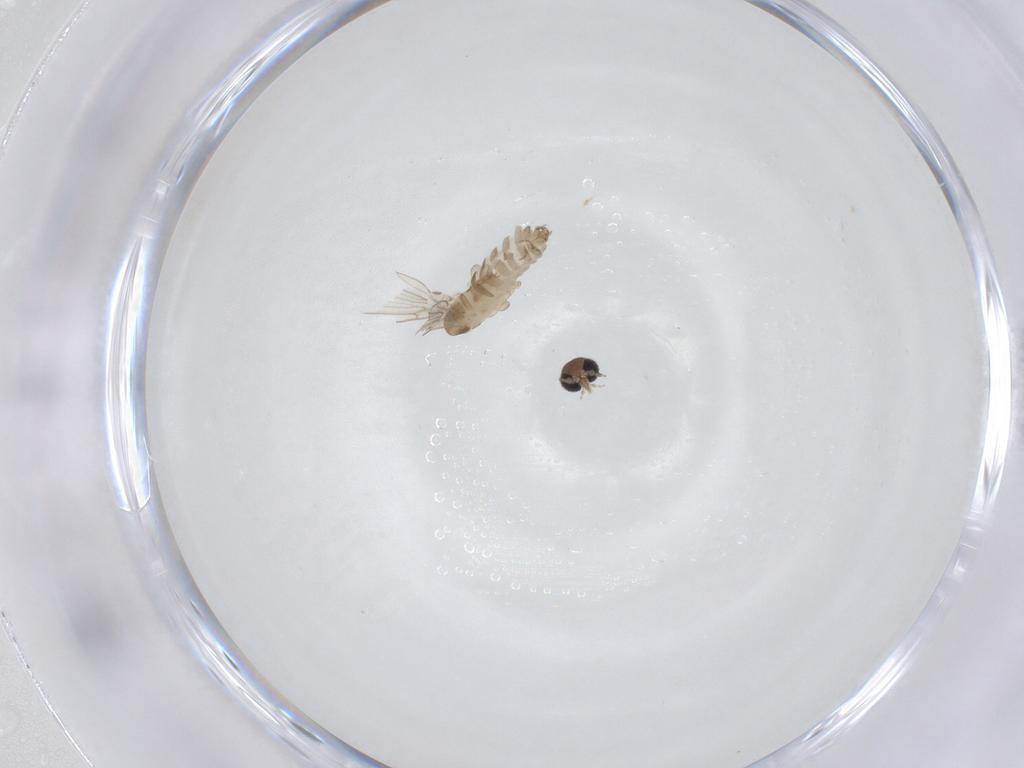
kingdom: Animalia
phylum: Arthropoda
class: Insecta
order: Diptera
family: Psychodidae
